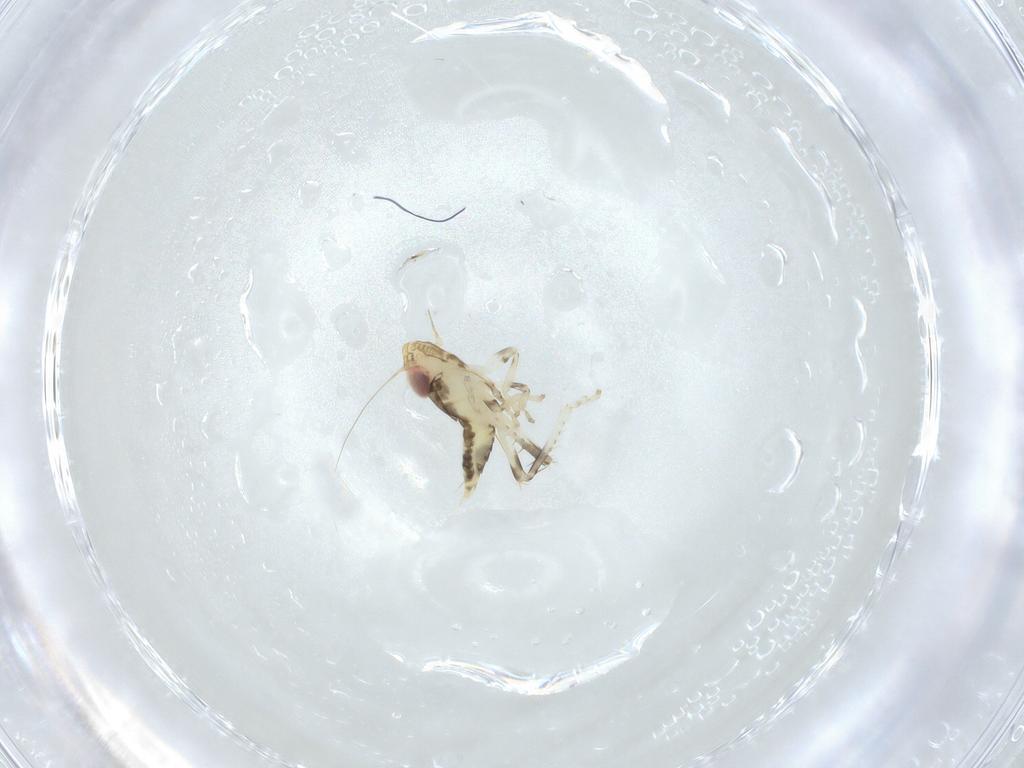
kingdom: Animalia
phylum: Arthropoda
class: Insecta
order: Hemiptera
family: Cicadellidae
